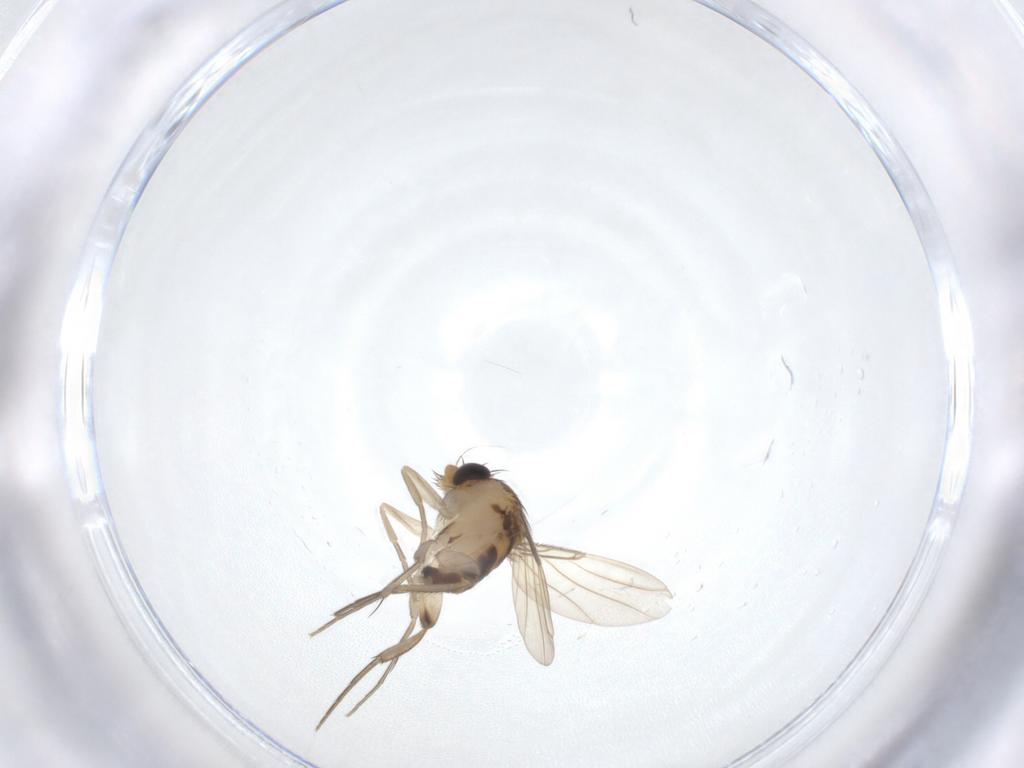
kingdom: Animalia
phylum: Arthropoda
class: Insecta
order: Diptera
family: Phoridae
